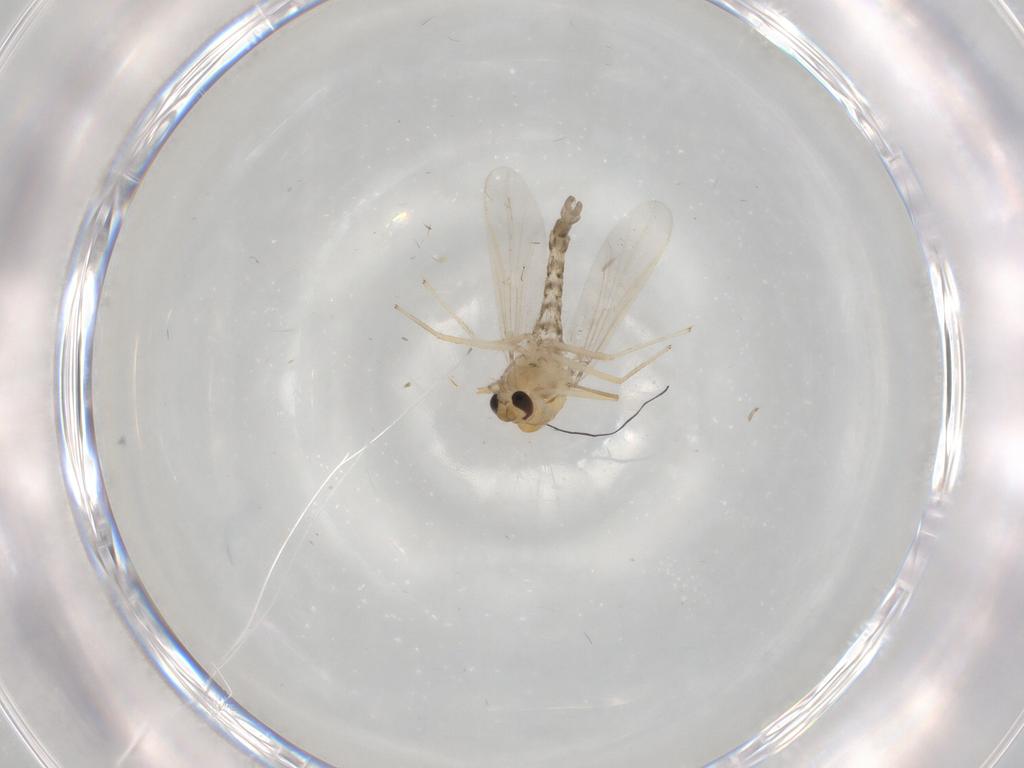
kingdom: Animalia
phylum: Arthropoda
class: Insecta
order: Diptera
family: Chironomidae
